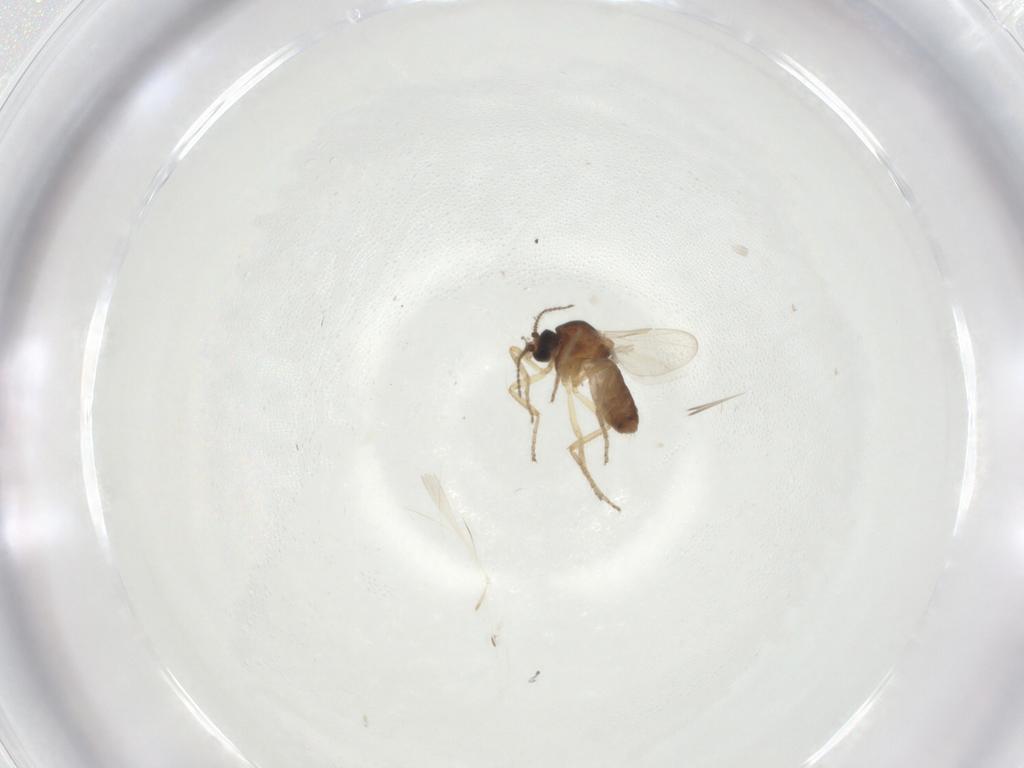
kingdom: Animalia
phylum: Arthropoda
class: Insecta
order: Diptera
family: Ceratopogonidae
